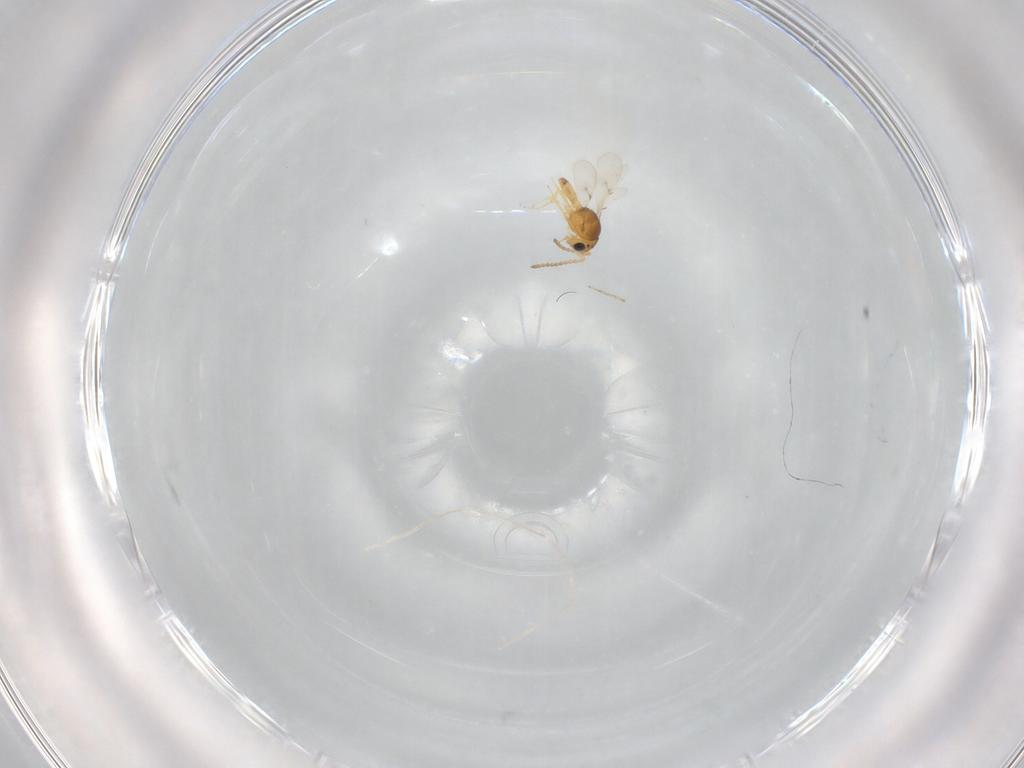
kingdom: Animalia
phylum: Arthropoda
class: Insecta
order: Hymenoptera
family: Scelionidae
